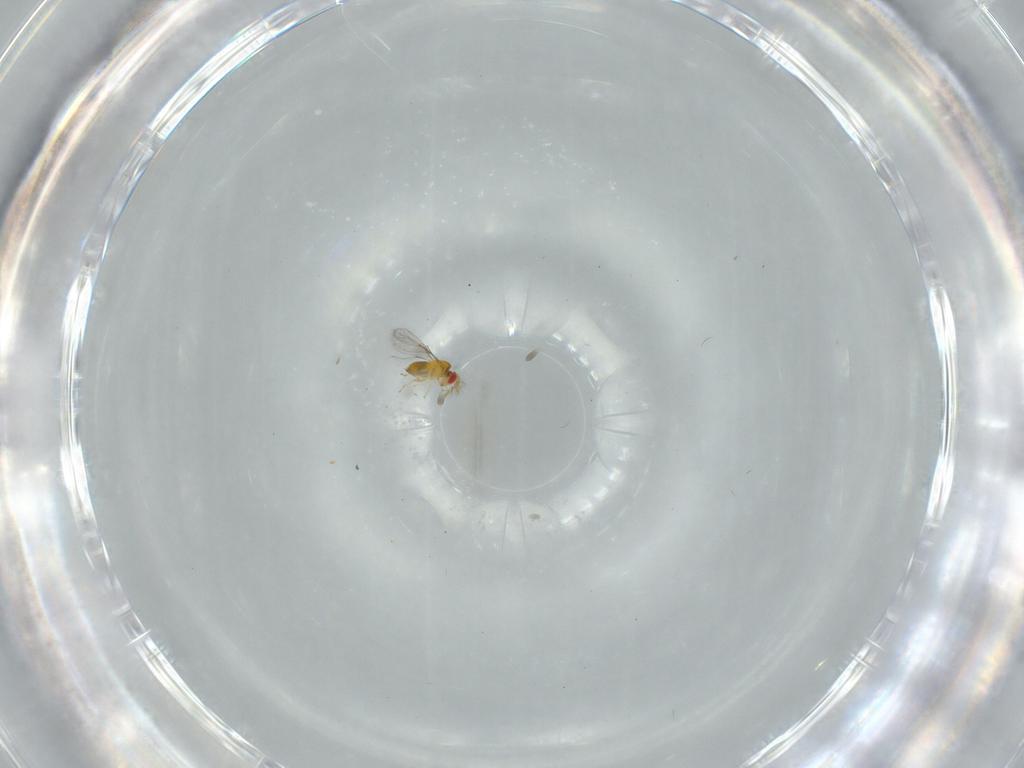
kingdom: Animalia
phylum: Arthropoda
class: Insecta
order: Hymenoptera
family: Trichogrammatidae
